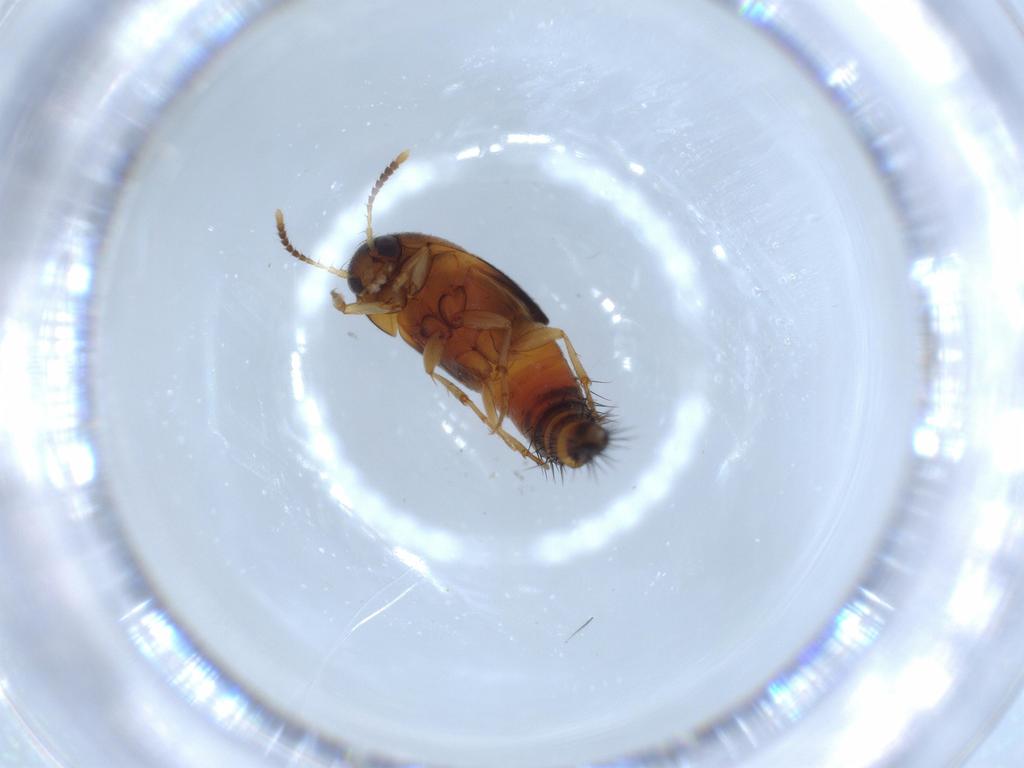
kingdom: Animalia
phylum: Arthropoda
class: Insecta
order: Coleoptera
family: Staphylinidae
